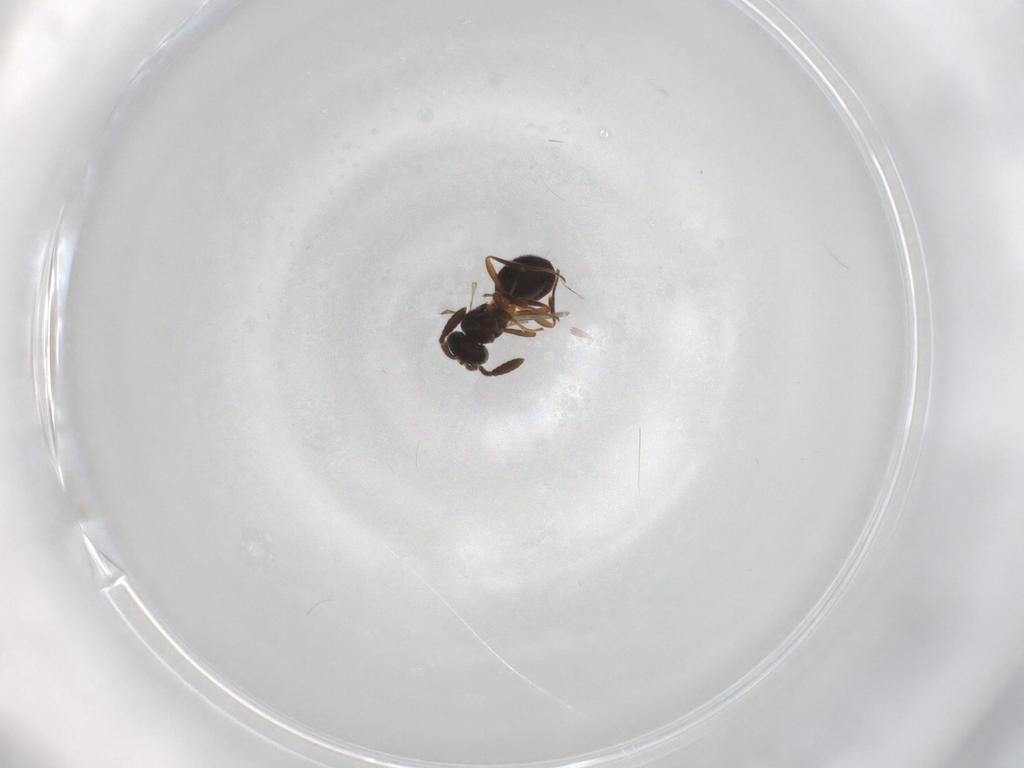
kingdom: Animalia
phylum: Arthropoda
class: Insecta
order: Hymenoptera
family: Scelionidae
